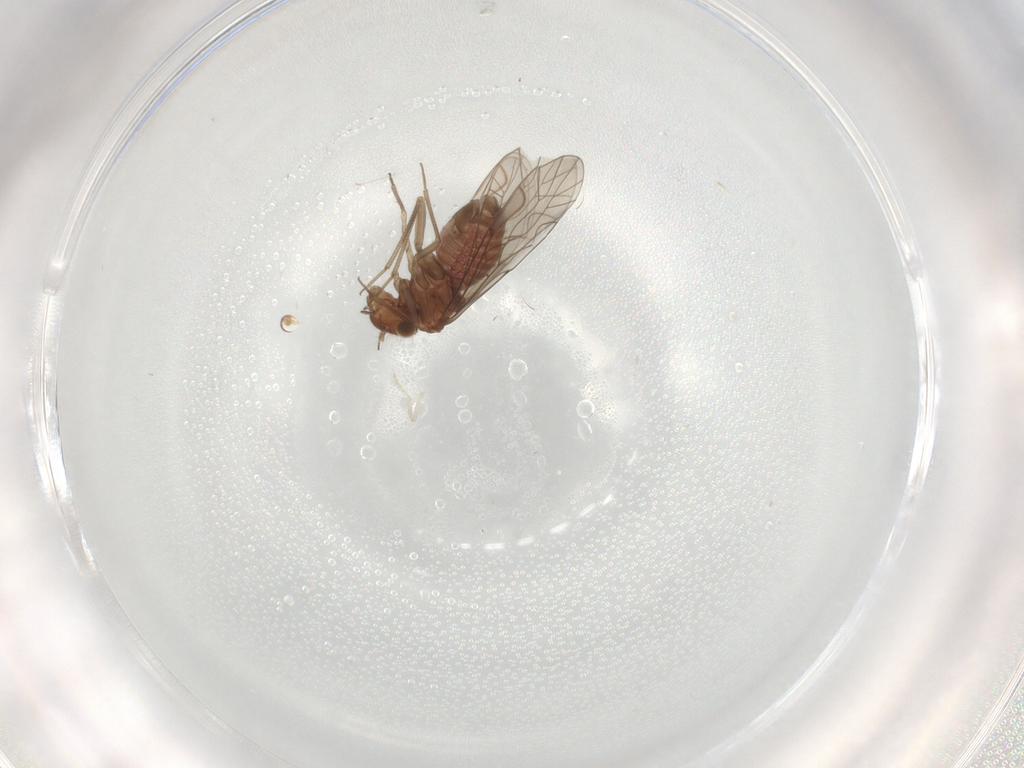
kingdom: Animalia
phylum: Arthropoda
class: Insecta
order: Psocodea
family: Lachesillidae
